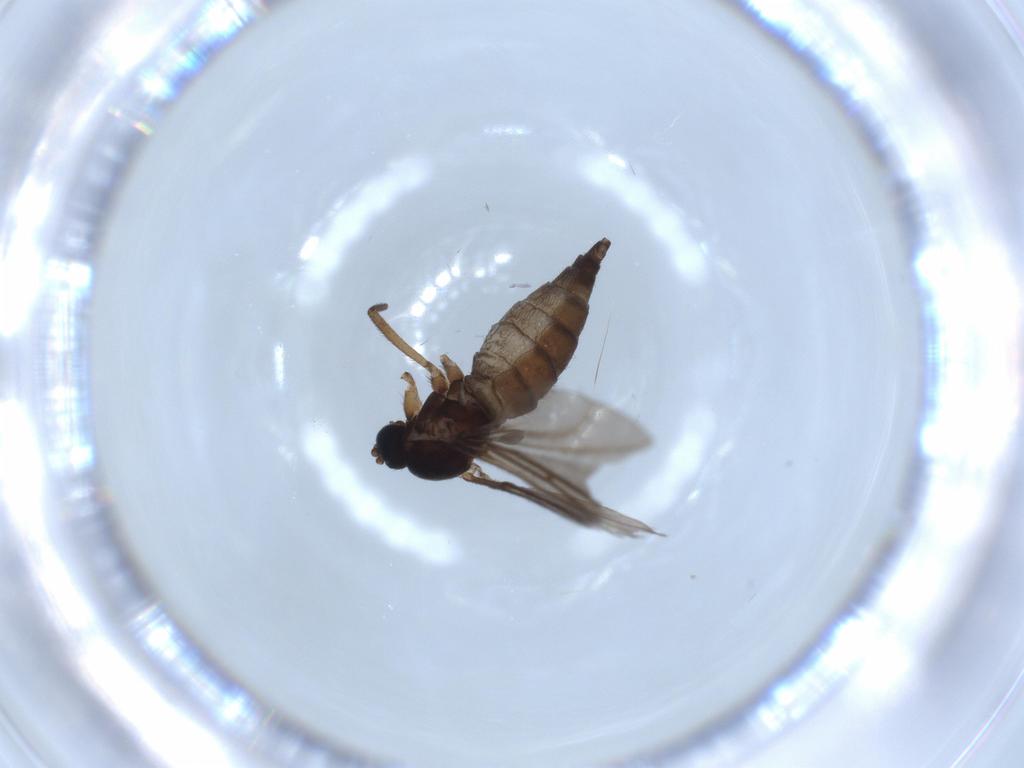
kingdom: Animalia
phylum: Arthropoda
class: Insecta
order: Diptera
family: Sciaridae
